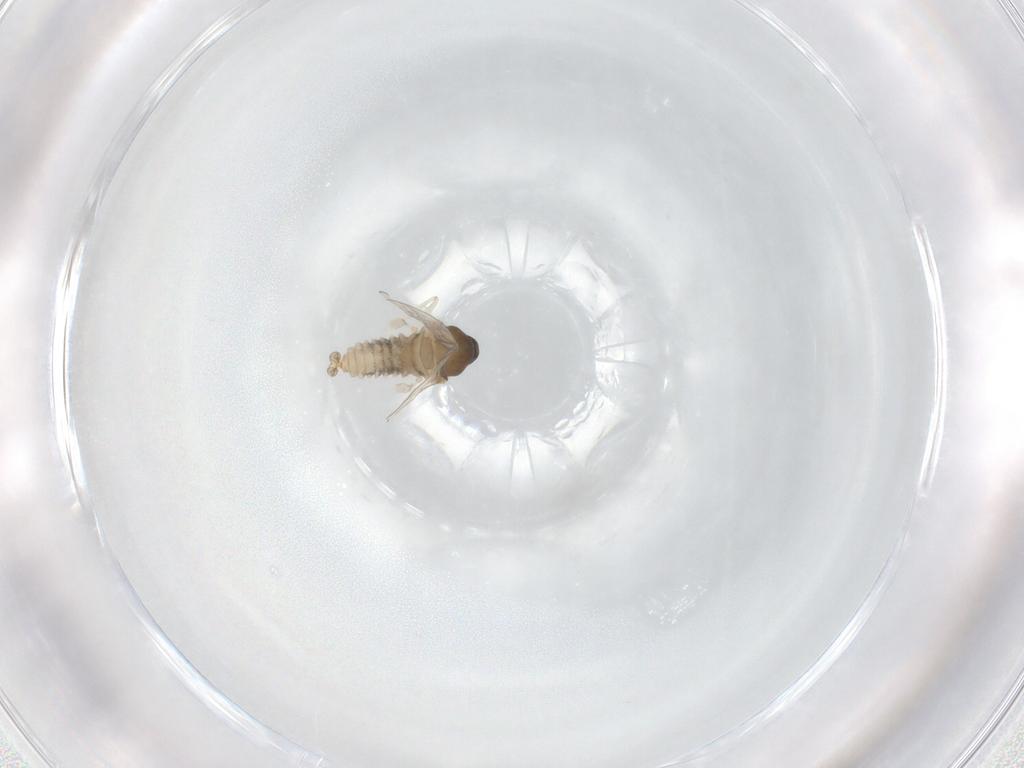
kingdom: Animalia
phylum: Arthropoda
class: Insecta
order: Diptera
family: Cecidomyiidae
